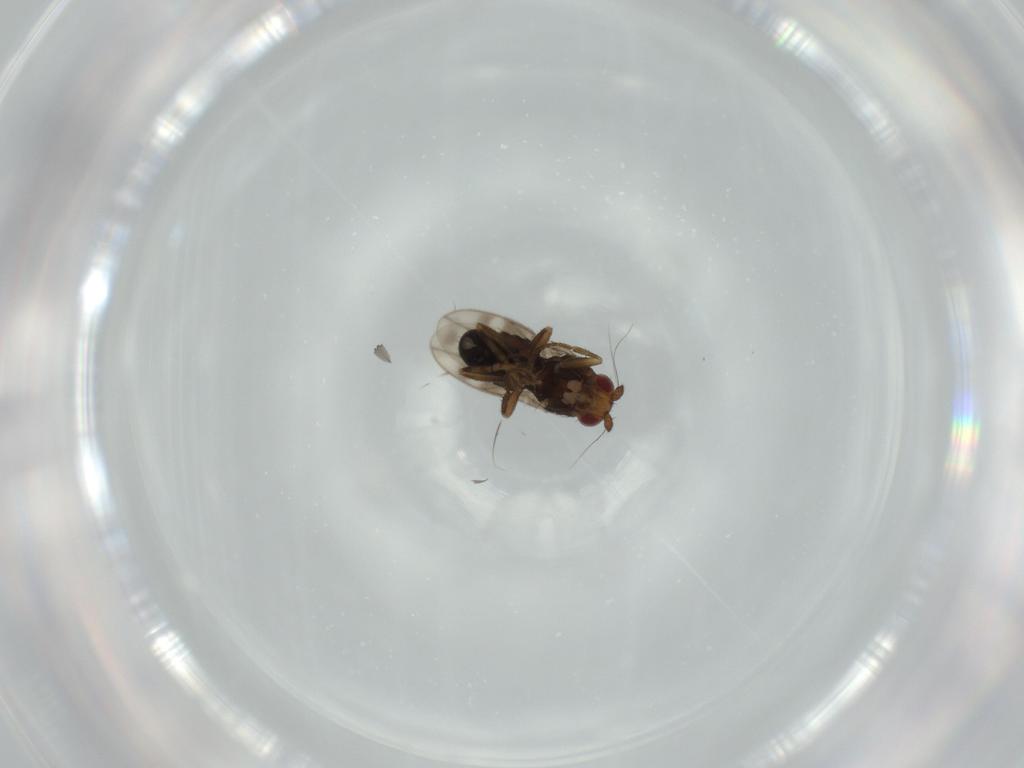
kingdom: Animalia
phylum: Arthropoda
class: Insecta
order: Diptera
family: Sphaeroceridae
